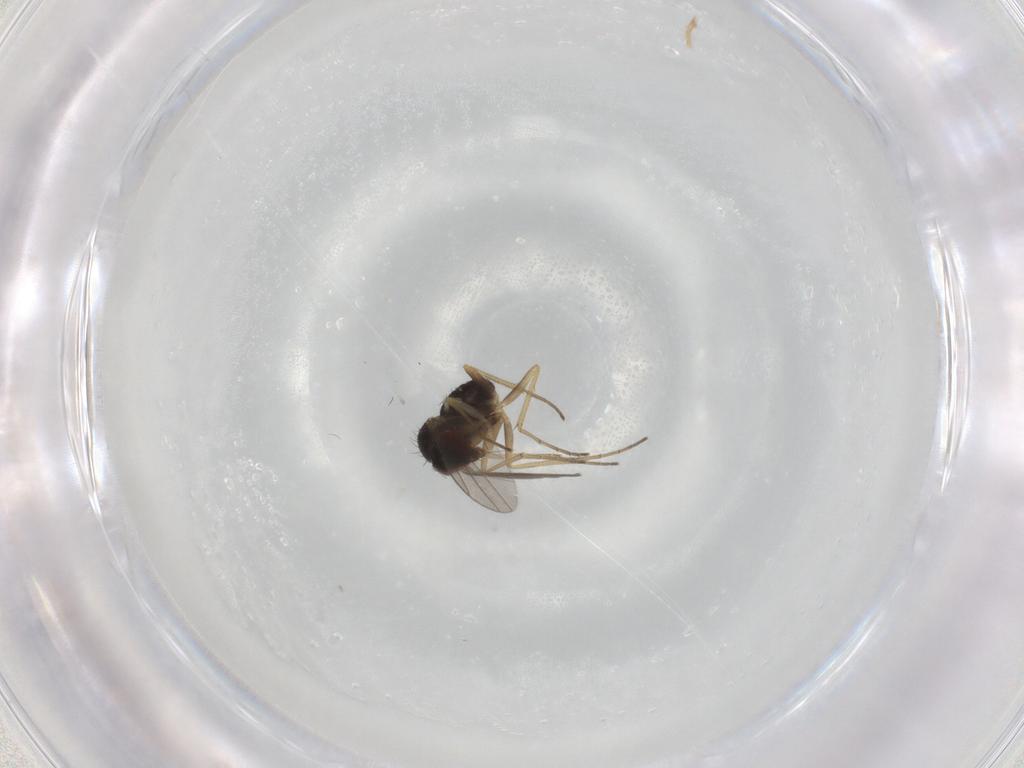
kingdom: Animalia
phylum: Arthropoda
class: Insecta
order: Diptera
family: Dolichopodidae
